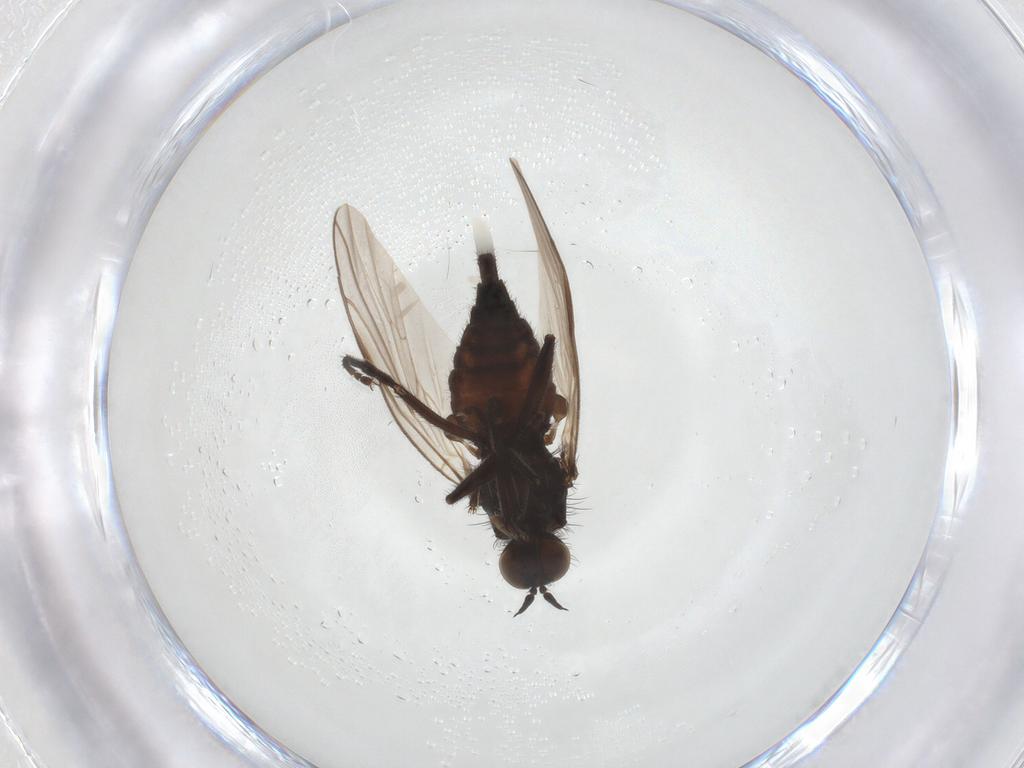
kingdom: Animalia
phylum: Arthropoda
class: Insecta
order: Diptera
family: Empididae
